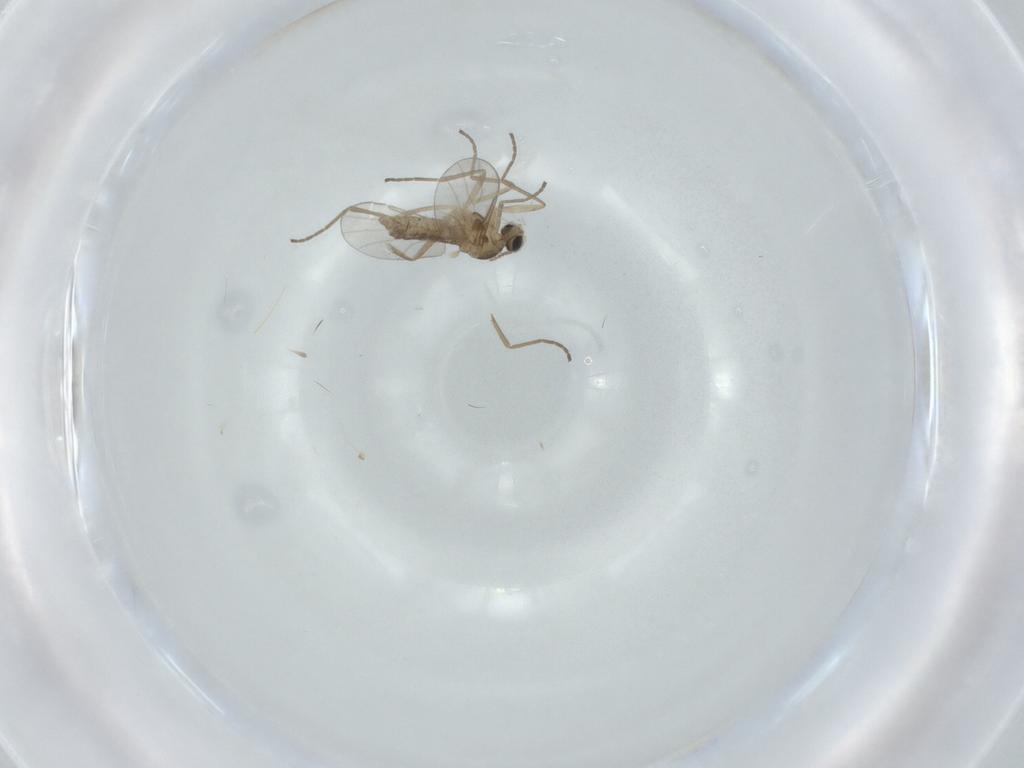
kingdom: Animalia
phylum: Arthropoda
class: Insecta
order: Diptera
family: Cecidomyiidae
